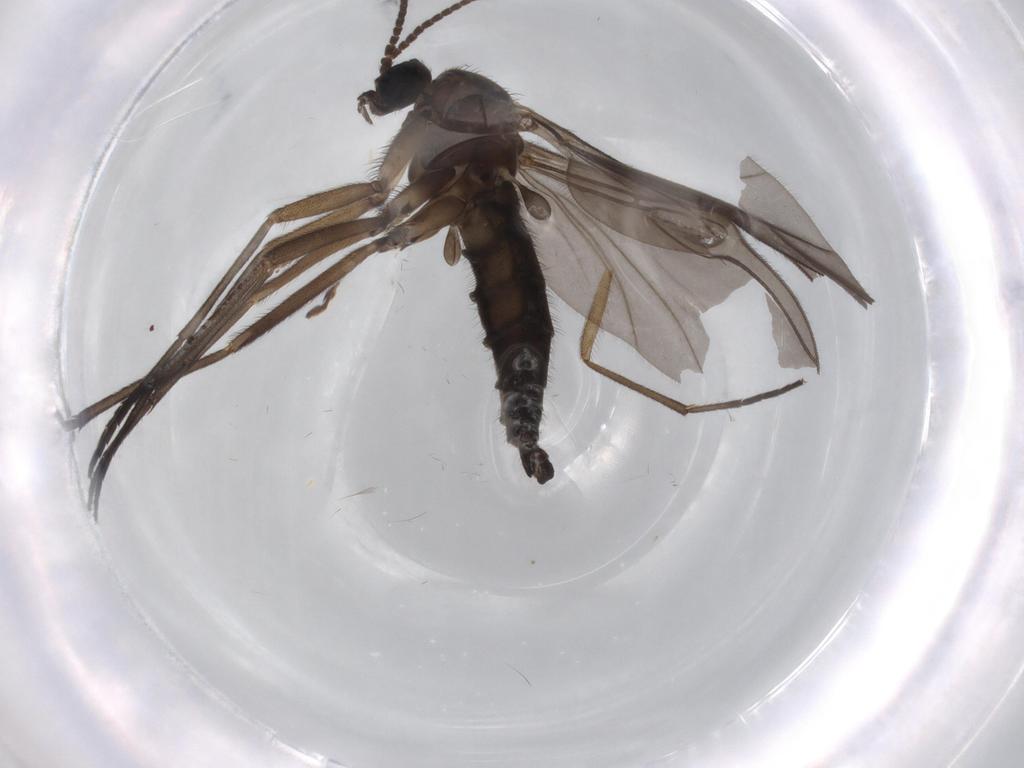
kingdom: Animalia
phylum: Arthropoda
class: Insecta
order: Diptera
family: Sciaridae
